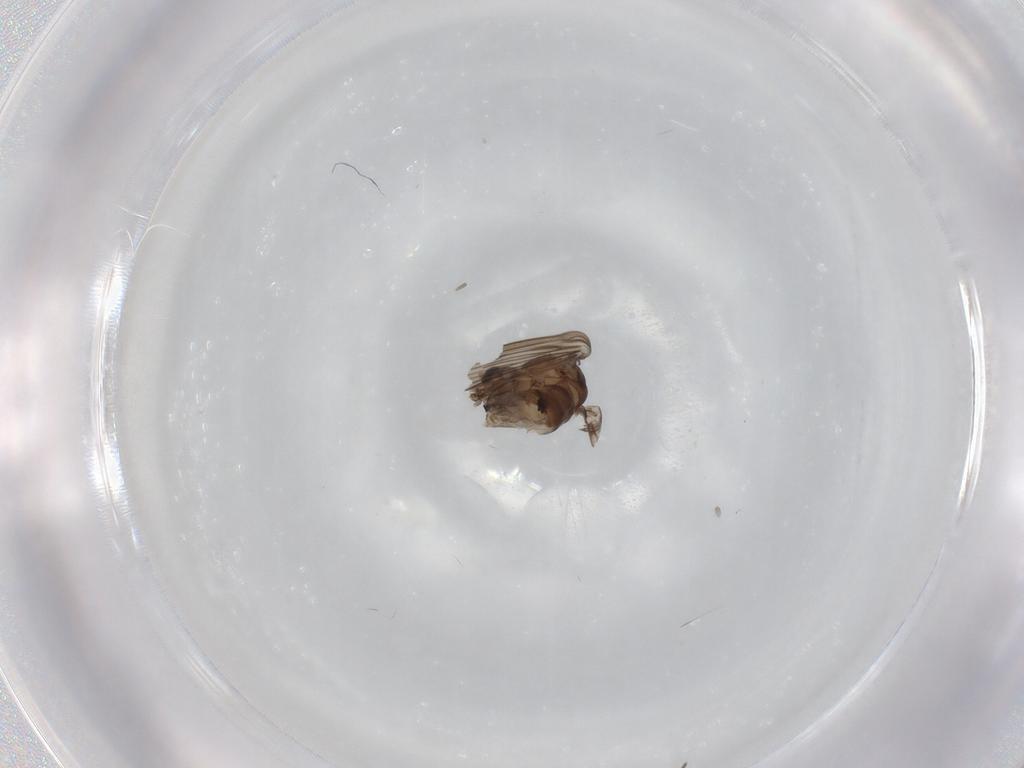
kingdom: Animalia
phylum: Arthropoda
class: Insecta
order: Diptera
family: Psychodidae
